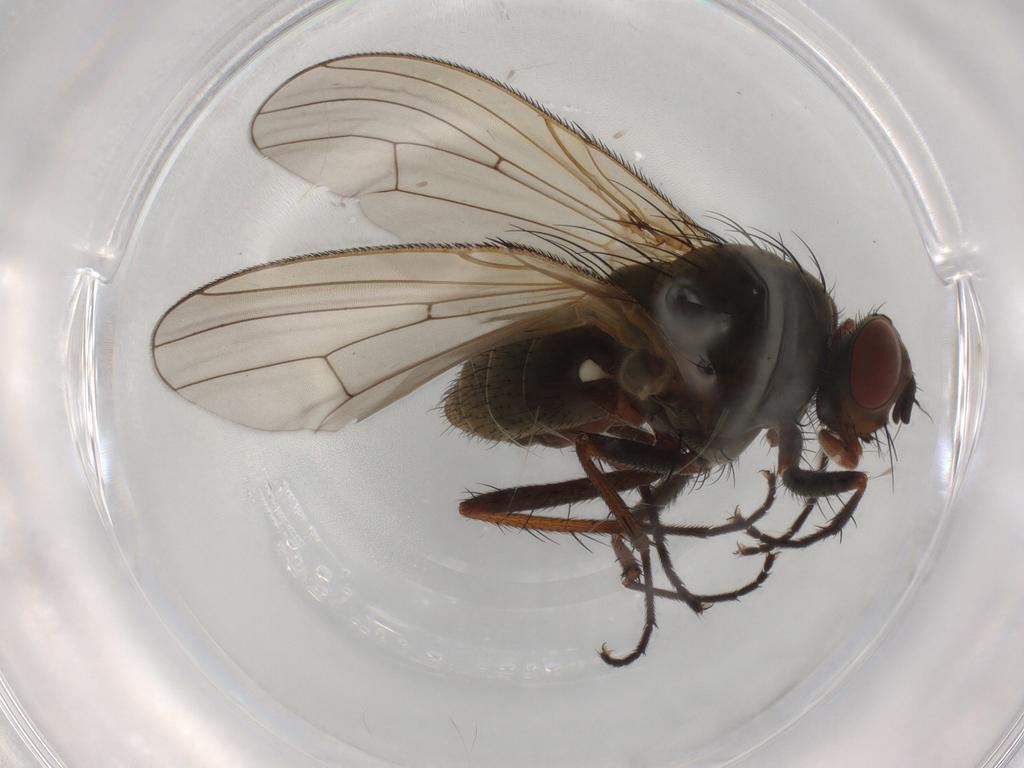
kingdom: Animalia
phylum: Arthropoda
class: Insecta
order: Diptera
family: Anthomyiidae
